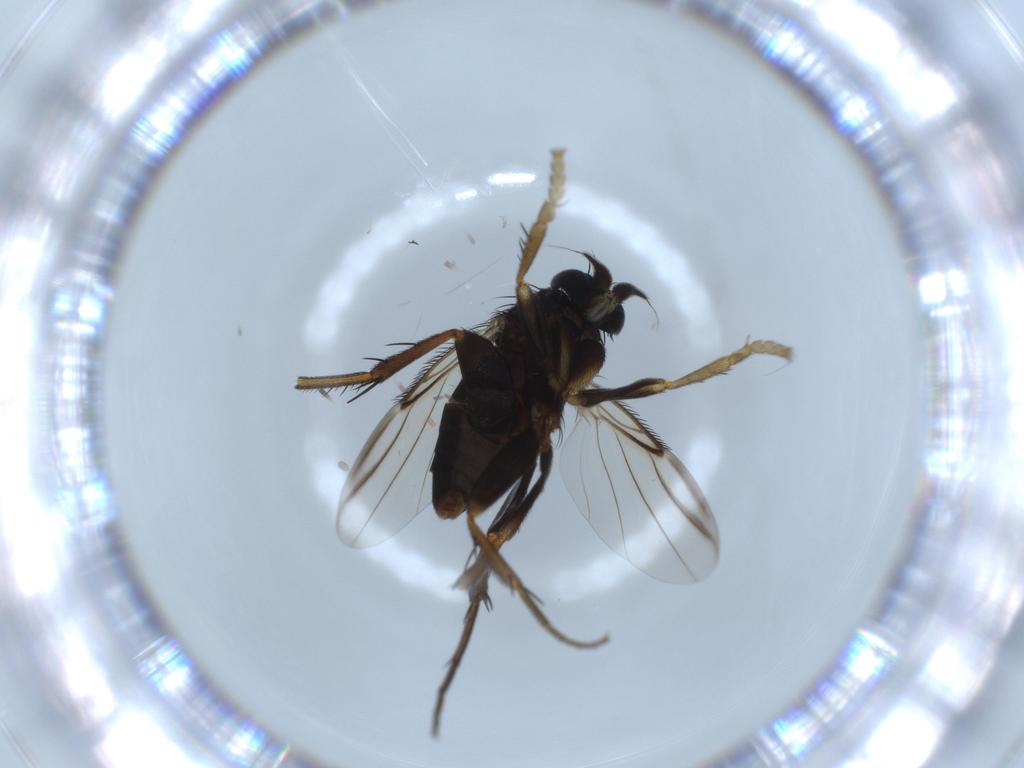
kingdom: Animalia
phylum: Arthropoda
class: Insecta
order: Diptera
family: Phoridae
